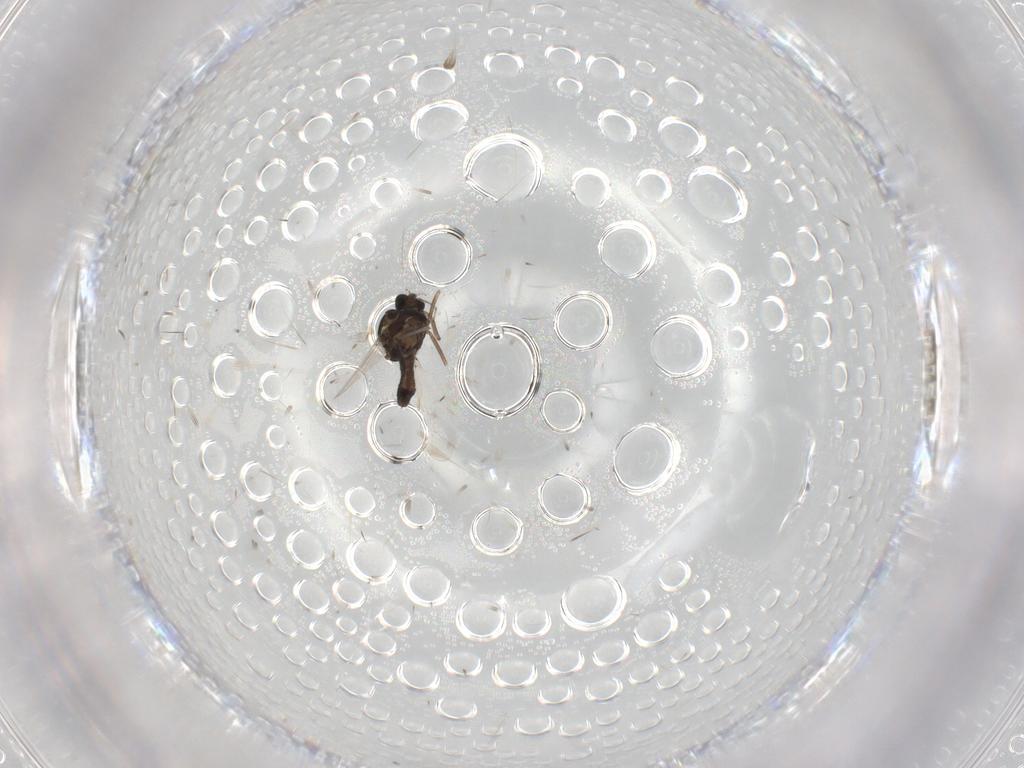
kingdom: Animalia
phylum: Arthropoda
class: Insecta
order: Diptera
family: Ceratopogonidae
